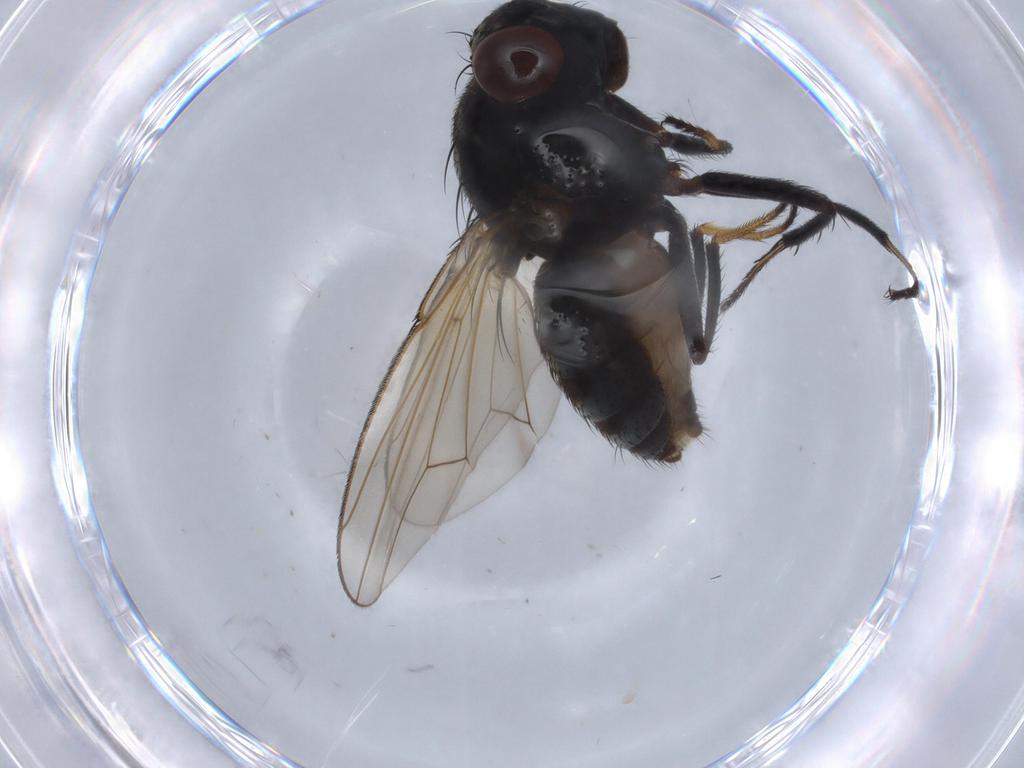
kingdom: Animalia
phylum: Arthropoda
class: Insecta
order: Diptera
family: Ephydridae
